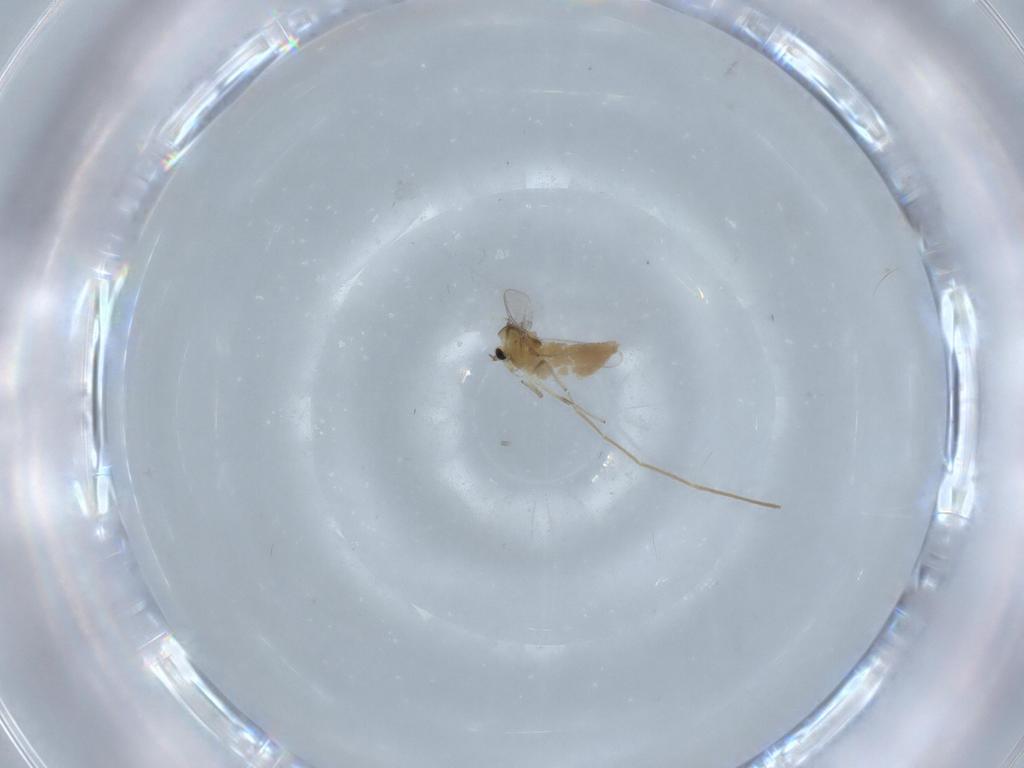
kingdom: Animalia
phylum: Arthropoda
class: Insecta
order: Diptera
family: Chironomidae
